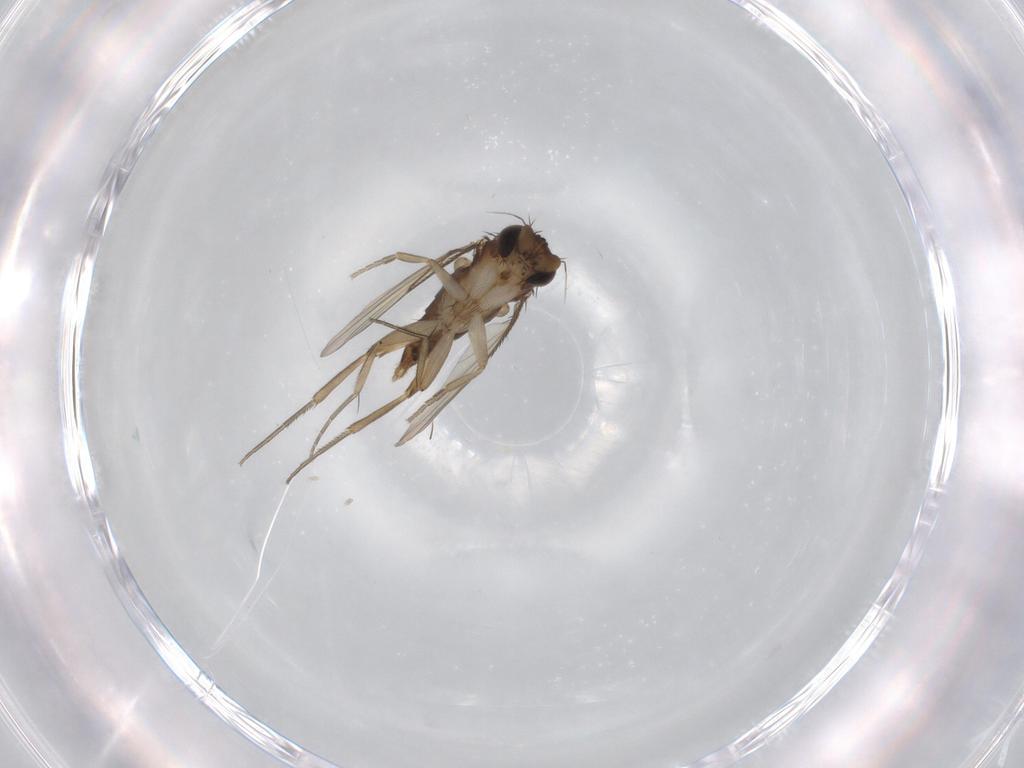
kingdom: Animalia
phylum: Arthropoda
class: Insecta
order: Diptera
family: Phoridae
